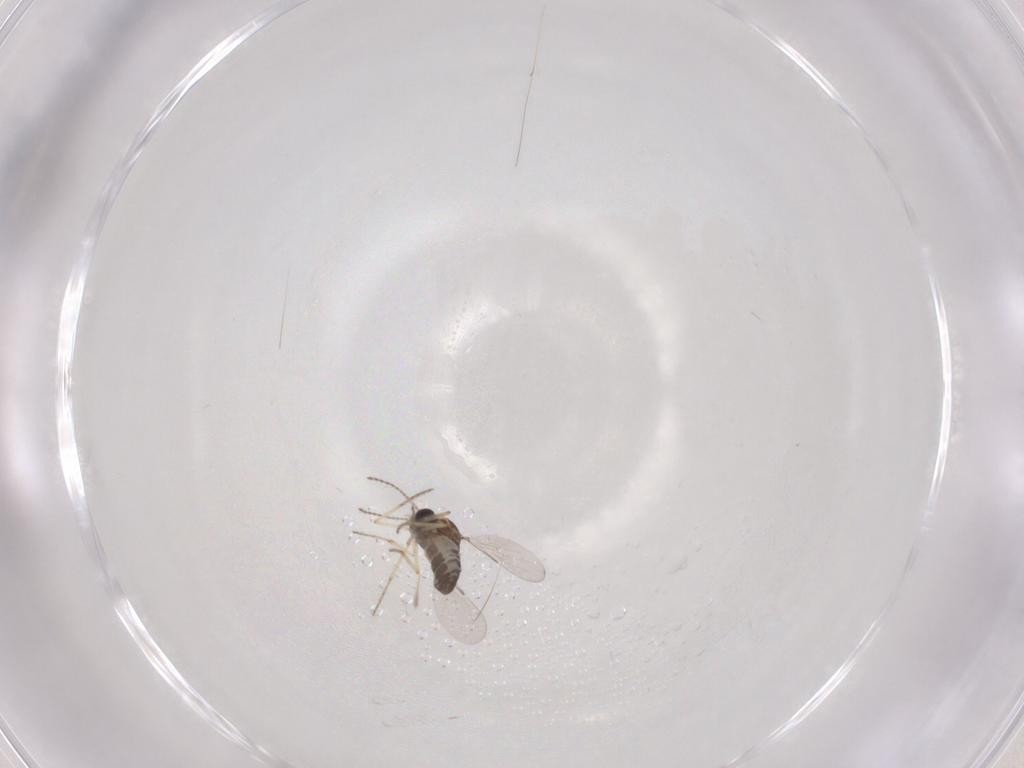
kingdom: Animalia
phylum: Arthropoda
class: Insecta
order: Diptera
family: Ceratopogonidae
